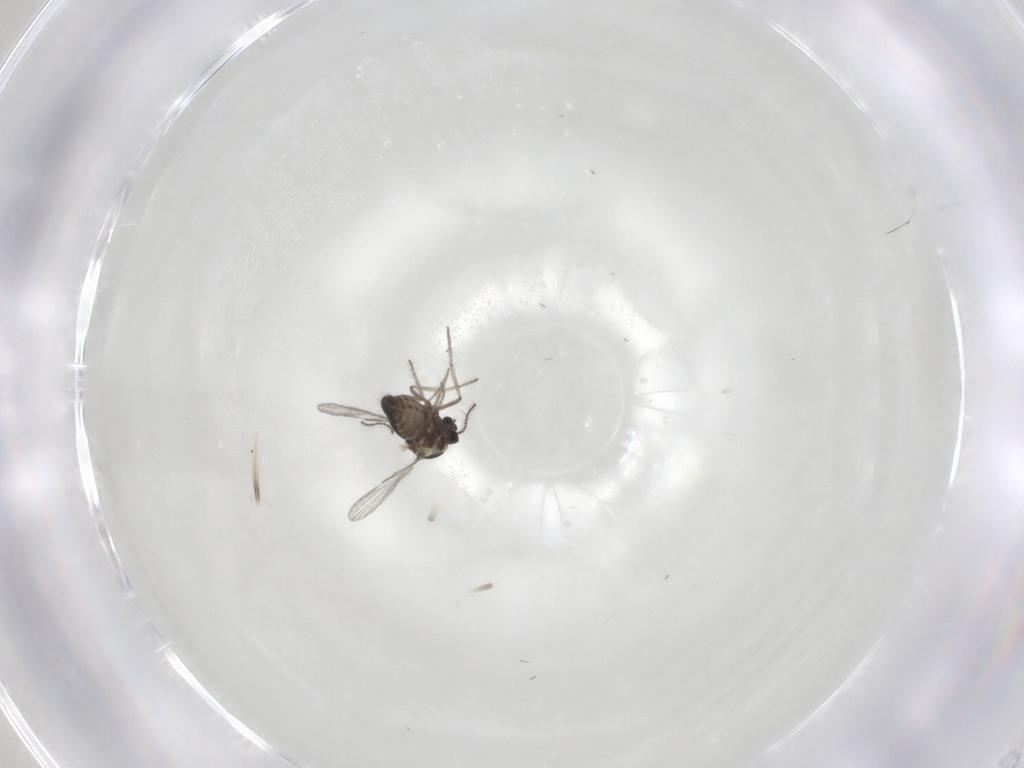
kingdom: Animalia
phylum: Arthropoda
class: Insecta
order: Diptera
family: Ceratopogonidae
